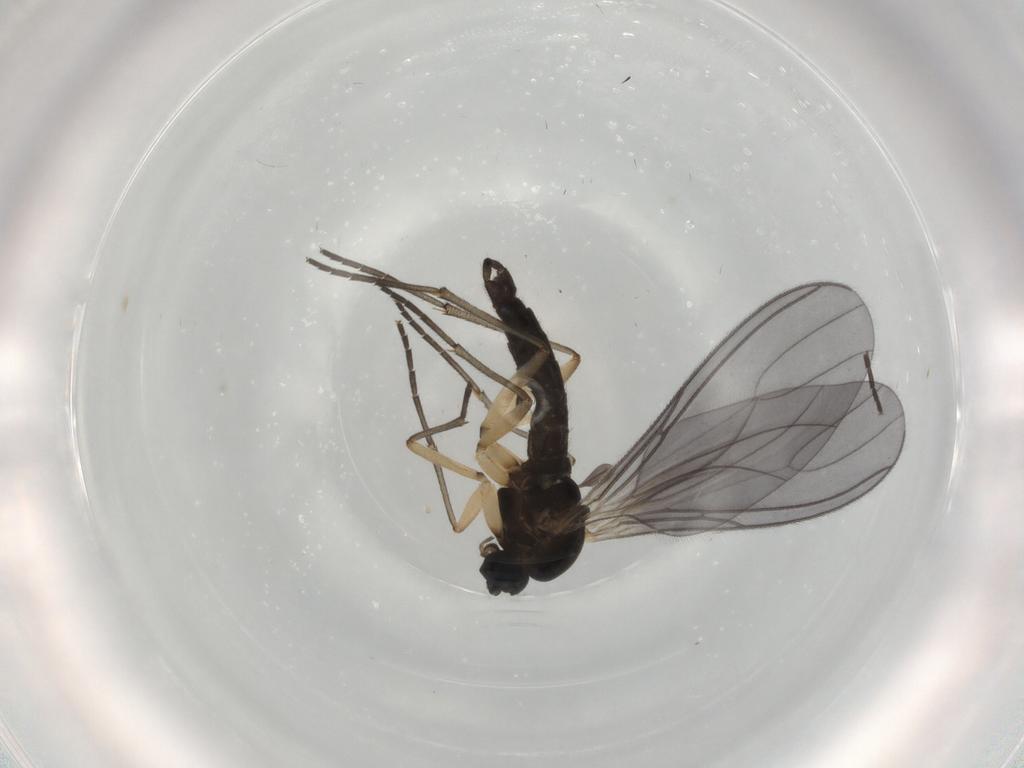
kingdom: Animalia
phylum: Arthropoda
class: Insecta
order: Diptera
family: Sciaridae
